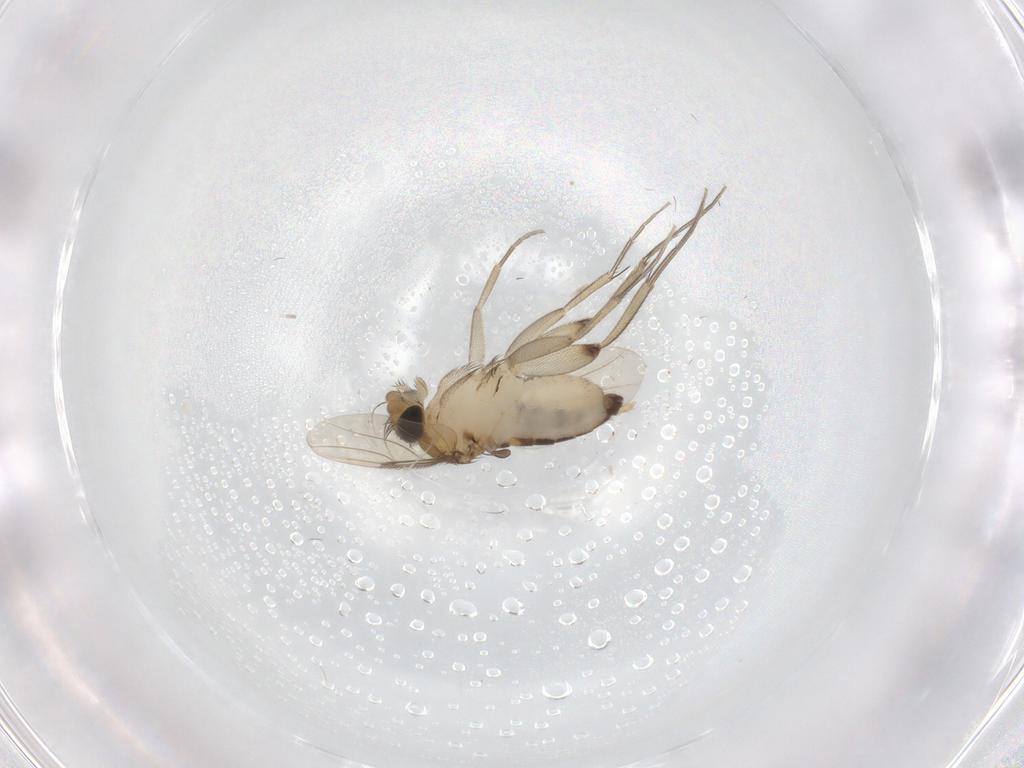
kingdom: Animalia
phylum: Arthropoda
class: Insecta
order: Diptera
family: Phoridae
